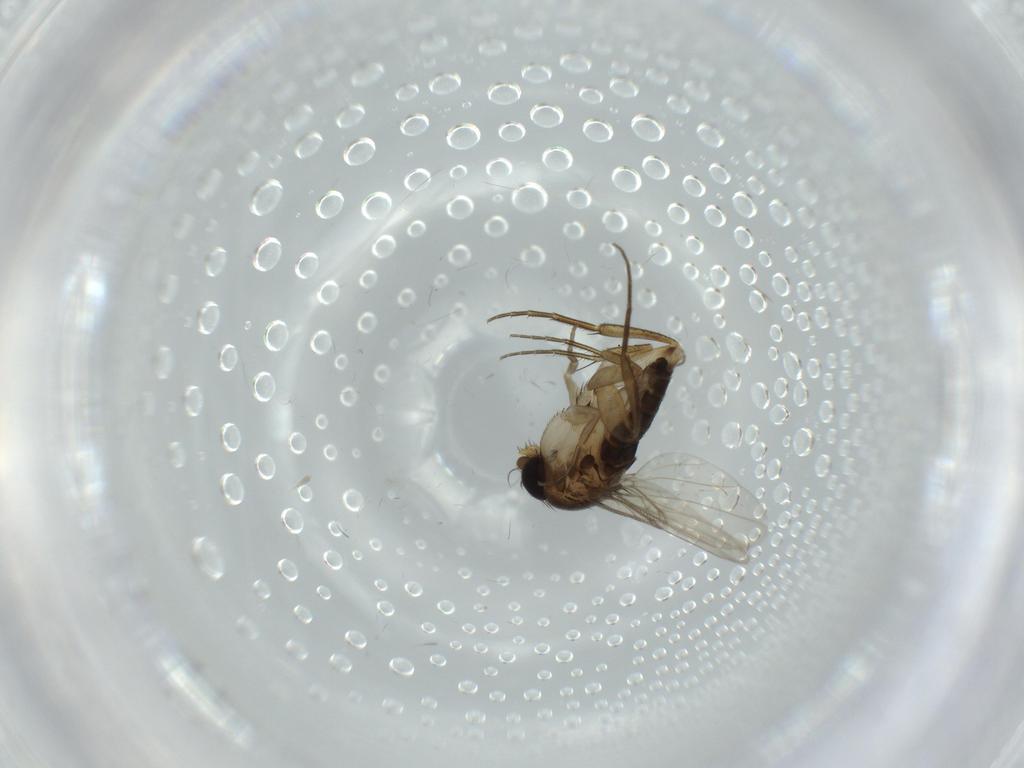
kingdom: Animalia
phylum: Arthropoda
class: Insecta
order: Diptera
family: Phoridae
